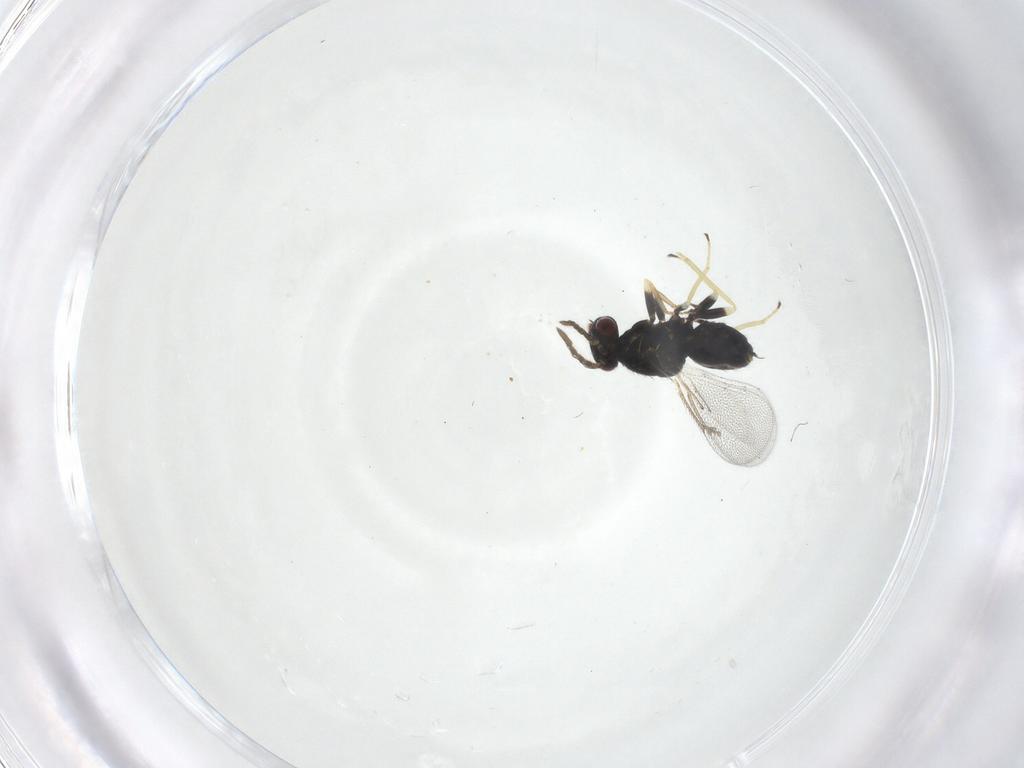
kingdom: Animalia
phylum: Arthropoda
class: Insecta
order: Hymenoptera
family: Eulophidae
